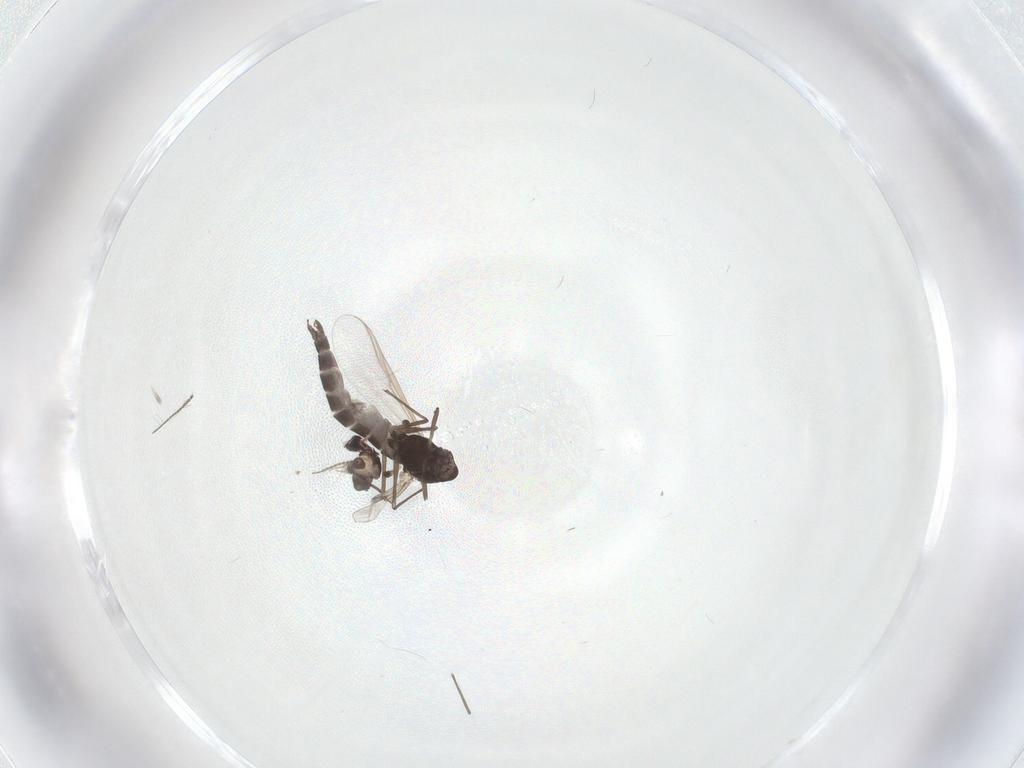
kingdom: Animalia
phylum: Arthropoda
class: Insecta
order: Diptera
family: Chironomidae
